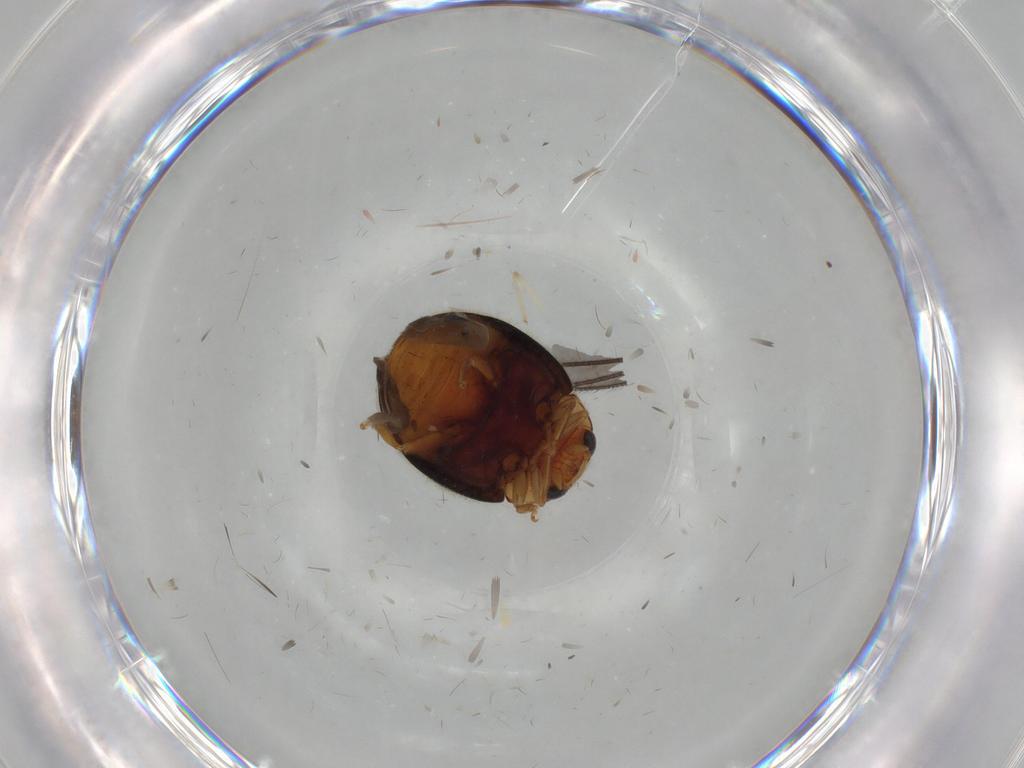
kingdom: Animalia
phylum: Arthropoda
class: Insecta
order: Coleoptera
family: Coccinellidae
